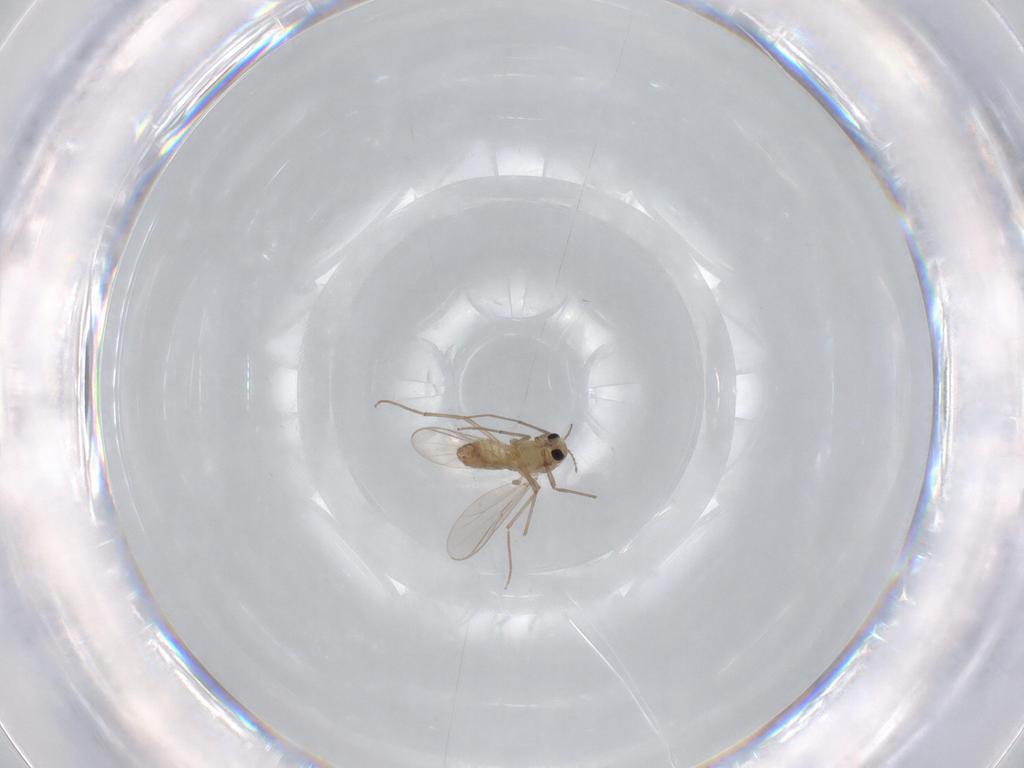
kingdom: Animalia
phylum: Arthropoda
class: Insecta
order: Diptera
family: Chironomidae
